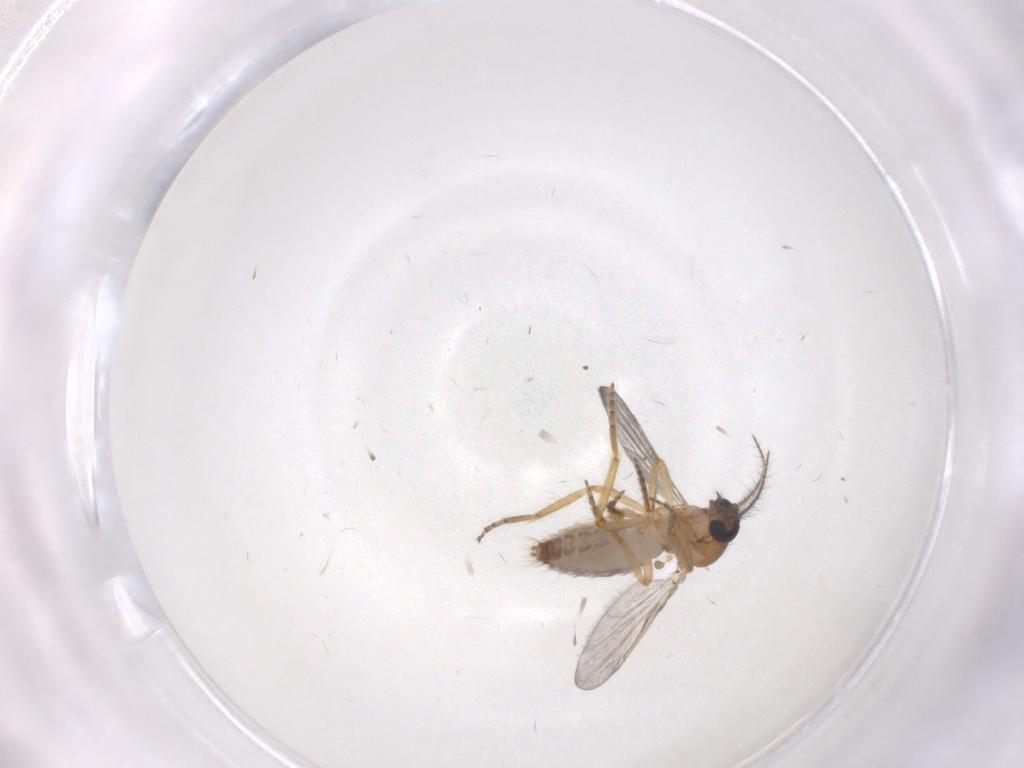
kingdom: Animalia
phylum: Arthropoda
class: Insecta
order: Diptera
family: Ceratopogonidae
